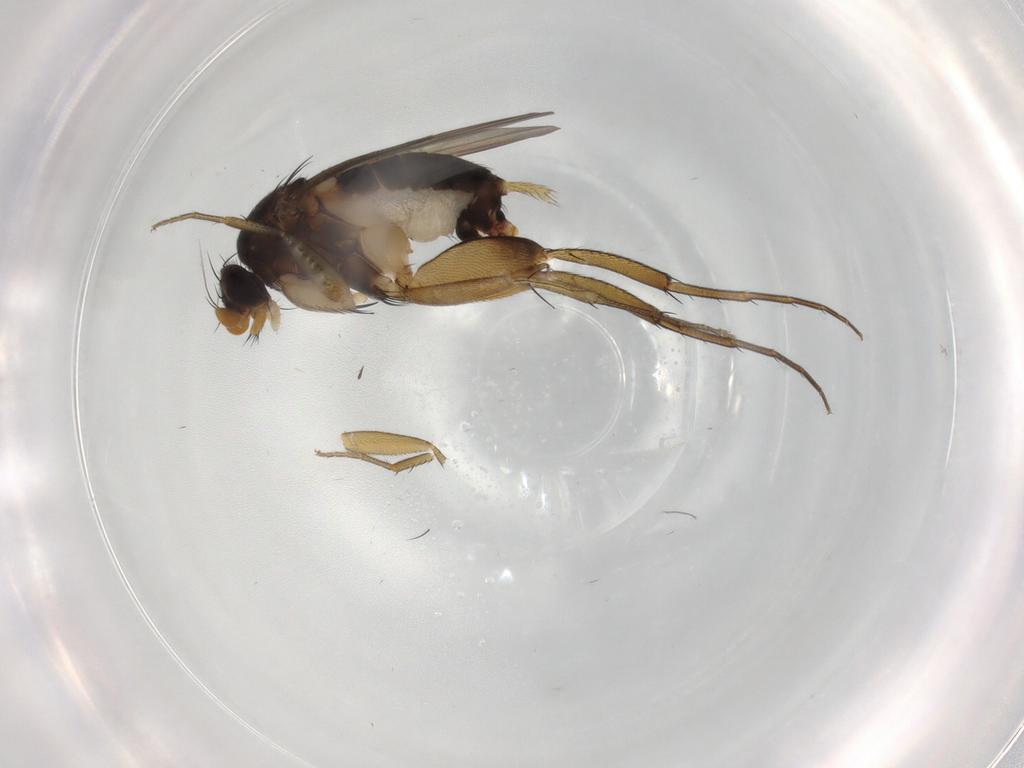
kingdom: Animalia
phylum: Arthropoda
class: Insecta
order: Diptera
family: Phoridae
